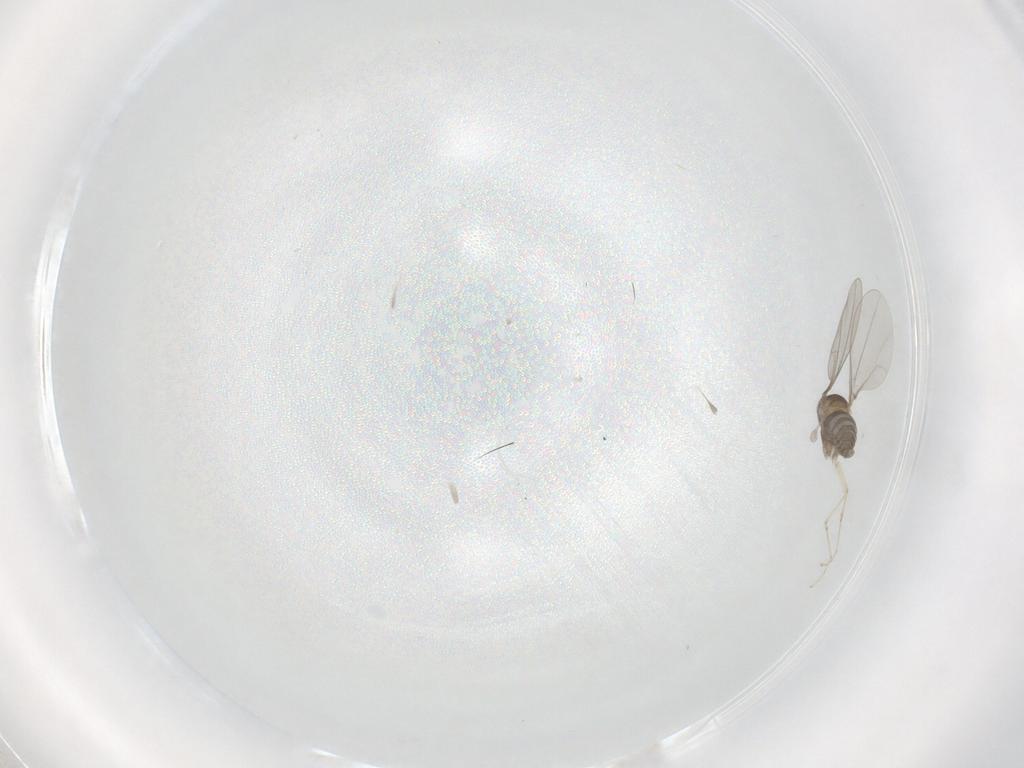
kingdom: Animalia
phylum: Arthropoda
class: Insecta
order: Diptera
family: Cecidomyiidae
